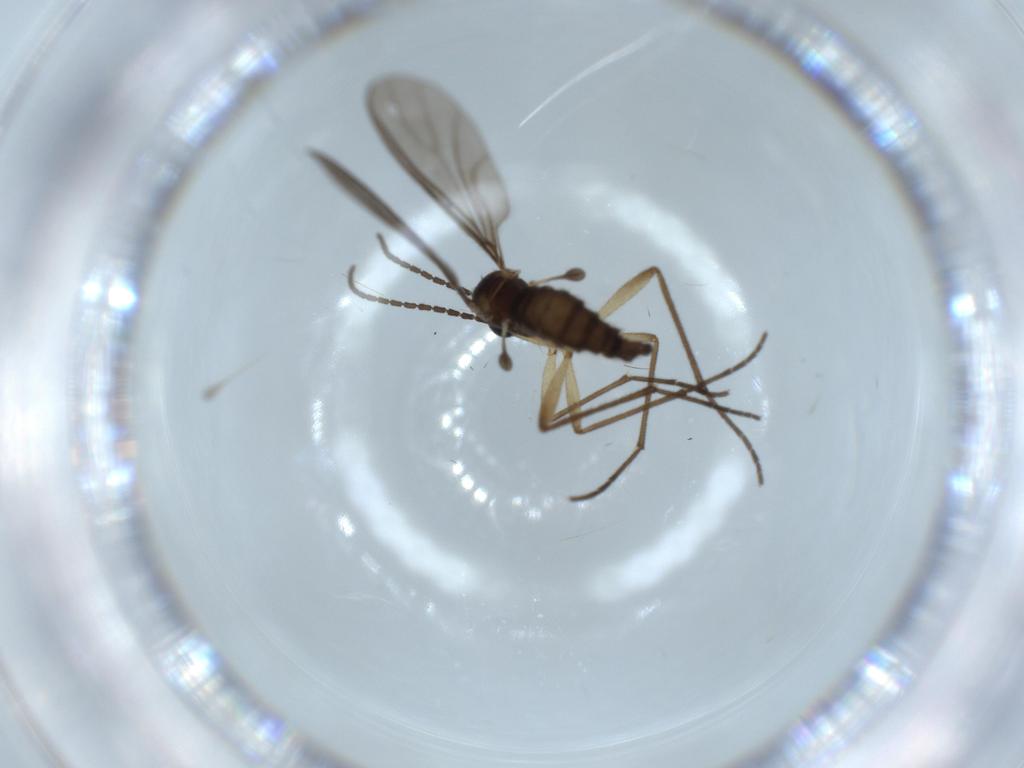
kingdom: Animalia
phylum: Arthropoda
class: Insecta
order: Diptera
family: Sciaridae
